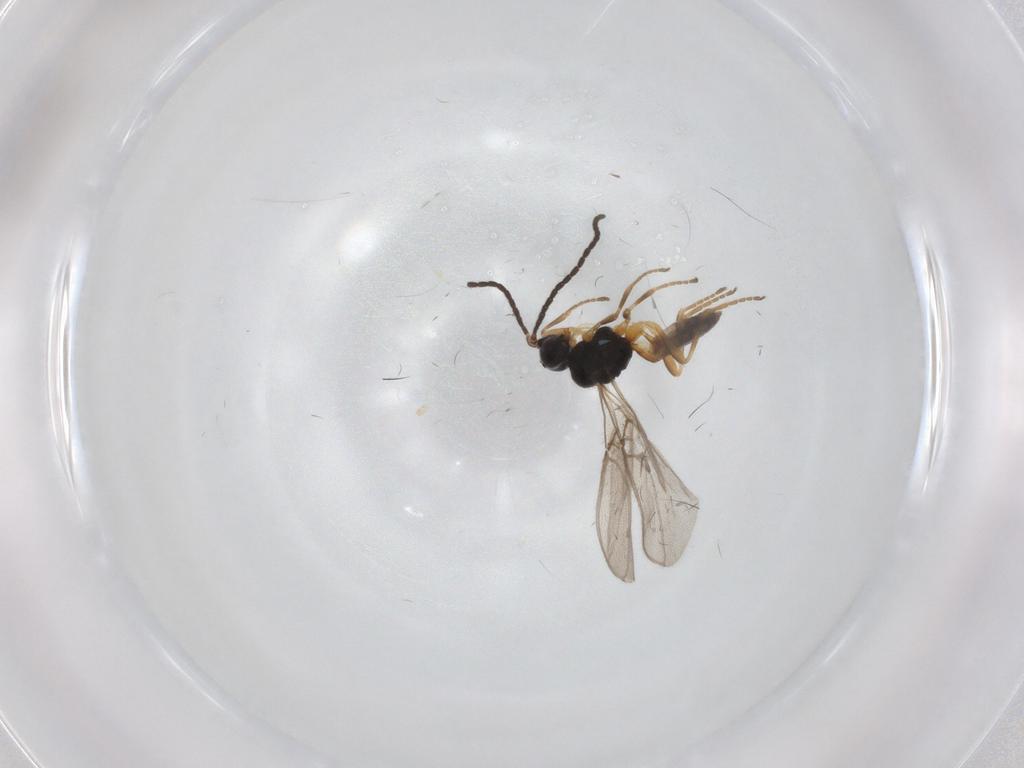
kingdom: Animalia
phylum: Arthropoda
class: Insecta
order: Hymenoptera
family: Braconidae
